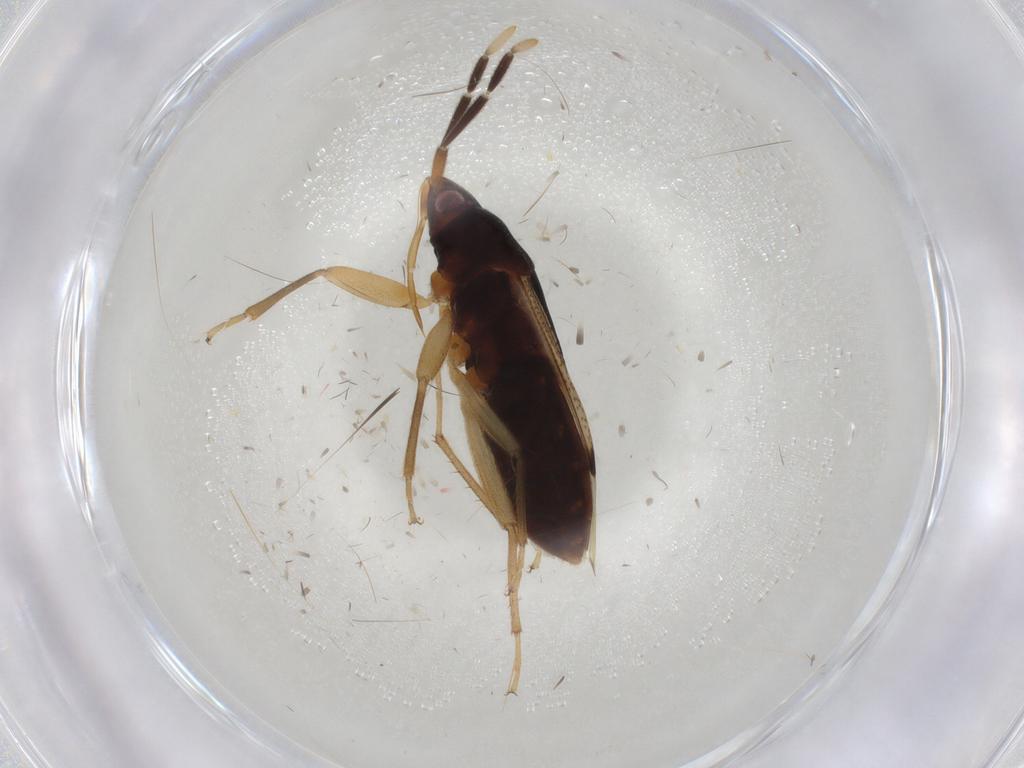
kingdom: Animalia
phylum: Arthropoda
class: Insecta
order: Hemiptera
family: Rhyparochromidae
